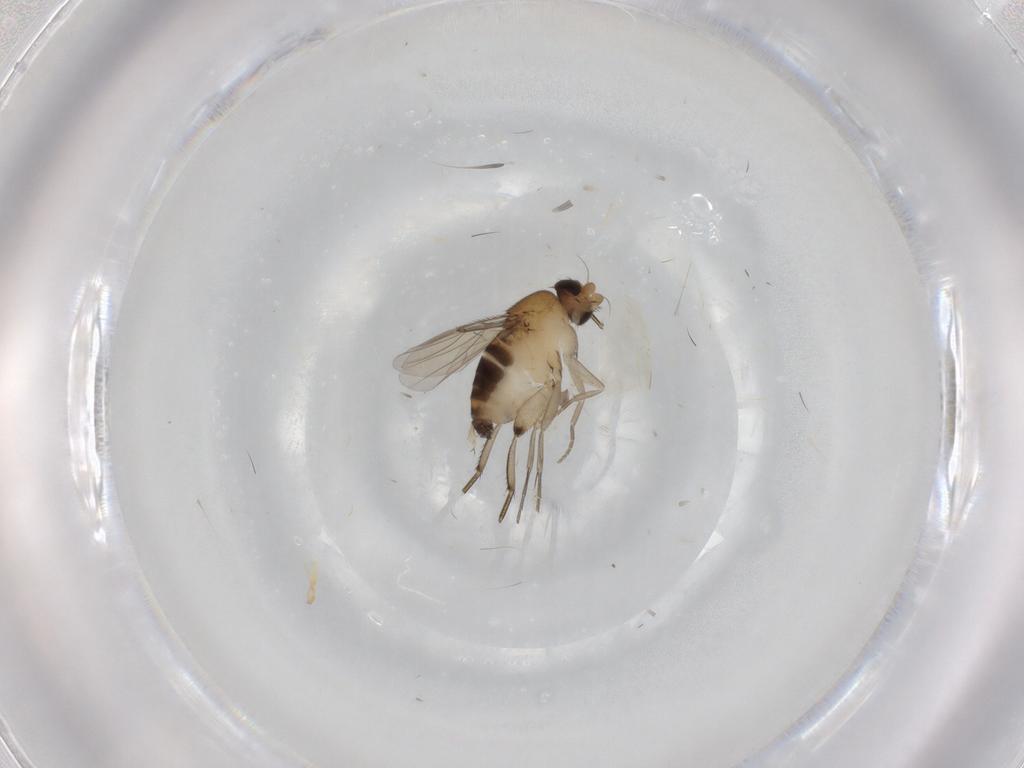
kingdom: Animalia
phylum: Arthropoda
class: Insecta
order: Diptera
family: Phoridae
